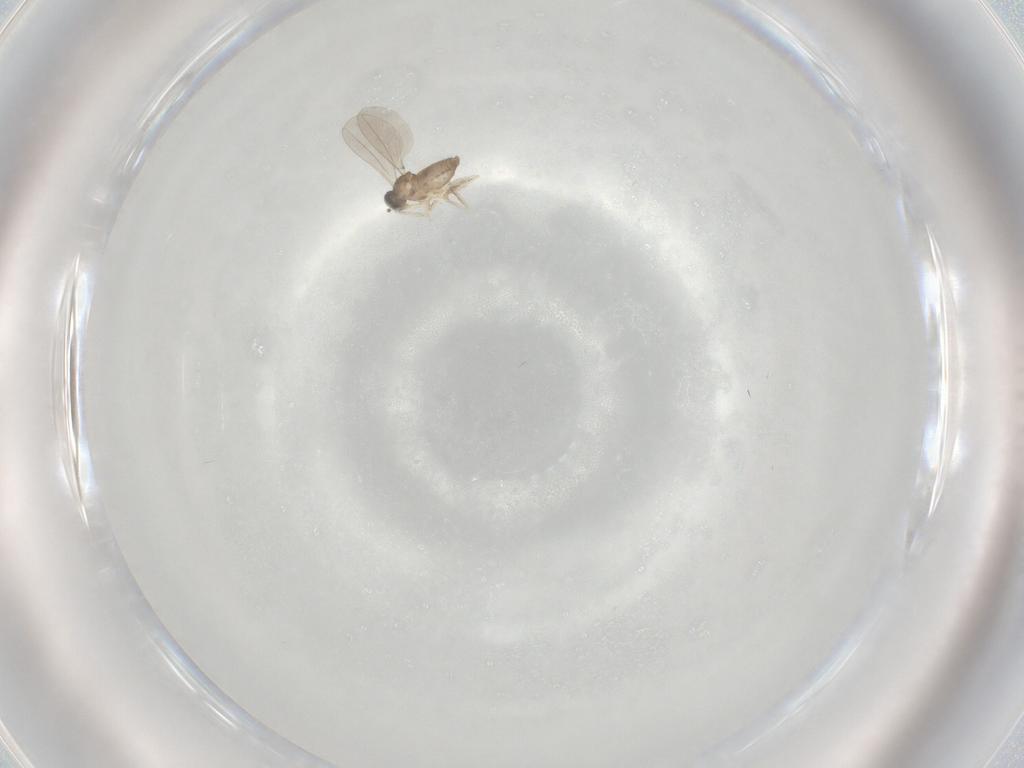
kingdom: Animalia
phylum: Arthropoda
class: Insecta
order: Diptera
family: Cecidomyiidae
